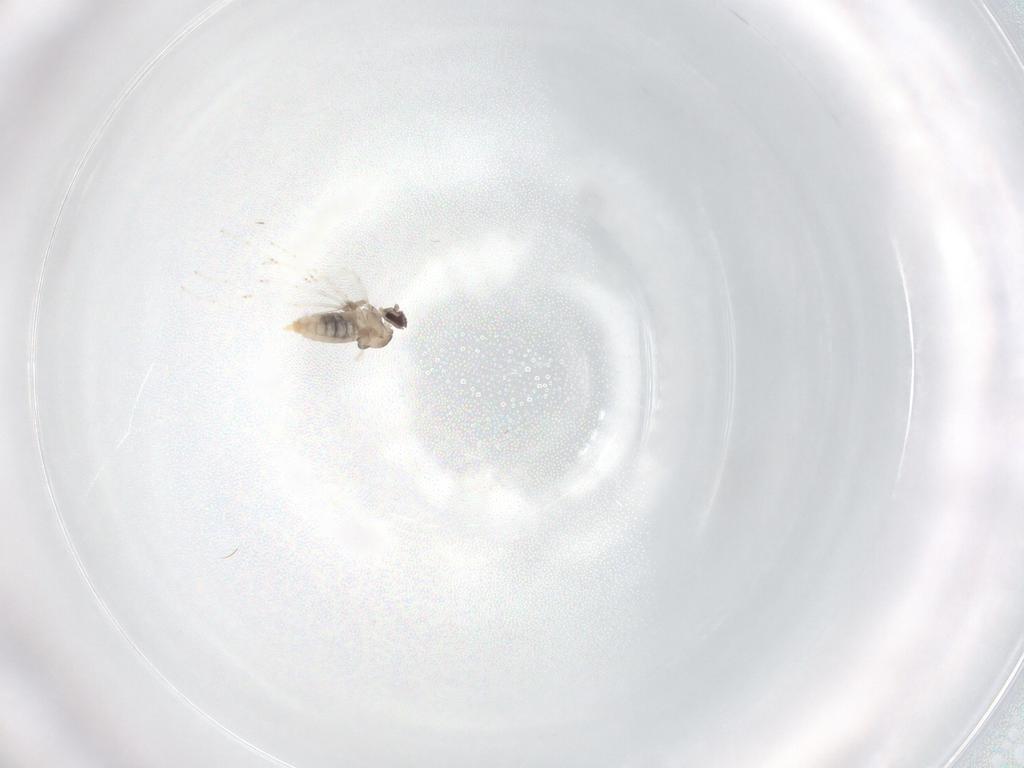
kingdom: Animalia
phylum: Arthropoda
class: Insecta
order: Diptera
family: Cecidomyiidae
